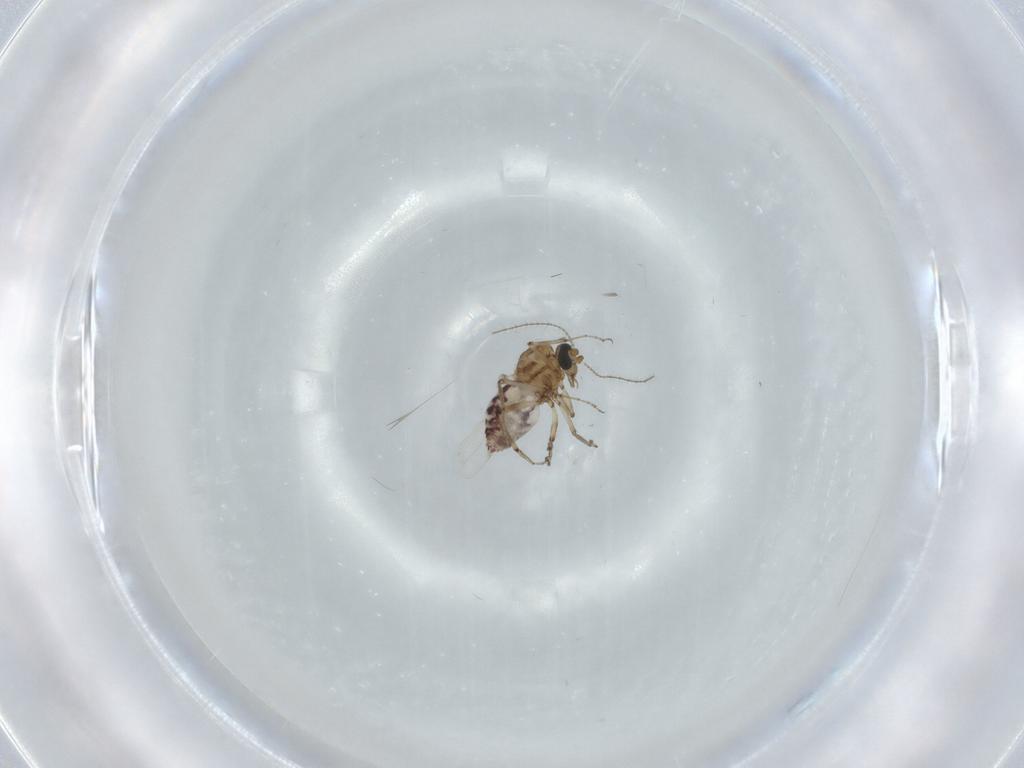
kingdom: Animalia
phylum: Arthropoda
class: Insecta
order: Diptera
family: Ceratopogonidae
